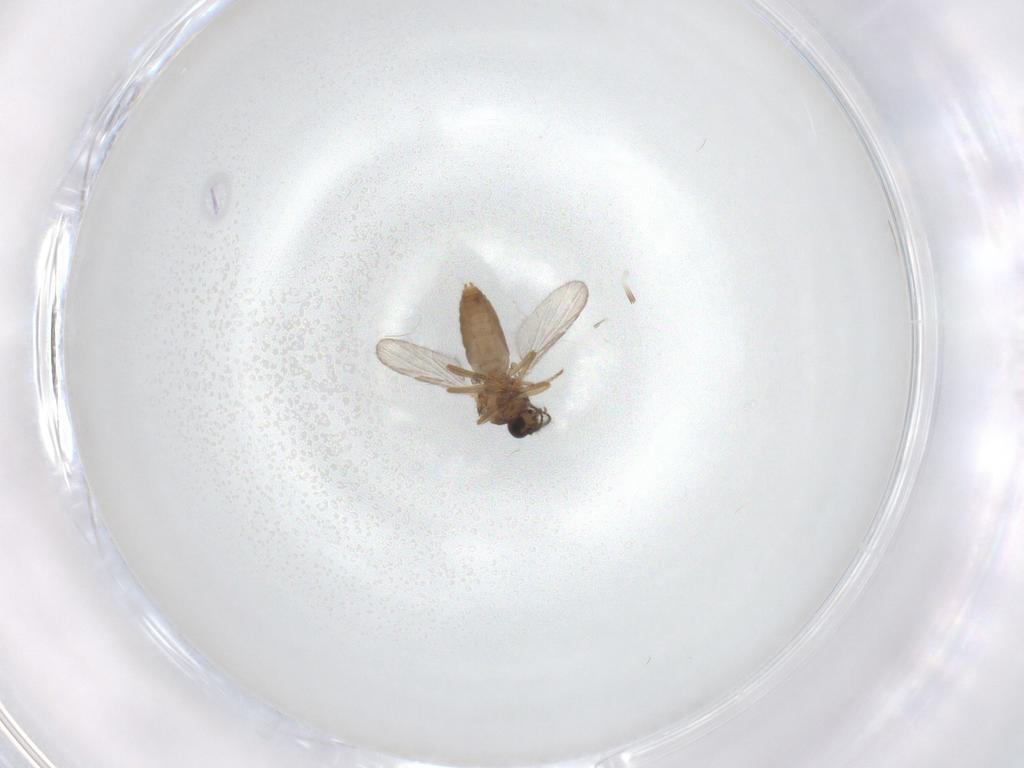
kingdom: Animalia
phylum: Arthropoda
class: Insecta
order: Diptera
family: Ceratopogonidae
